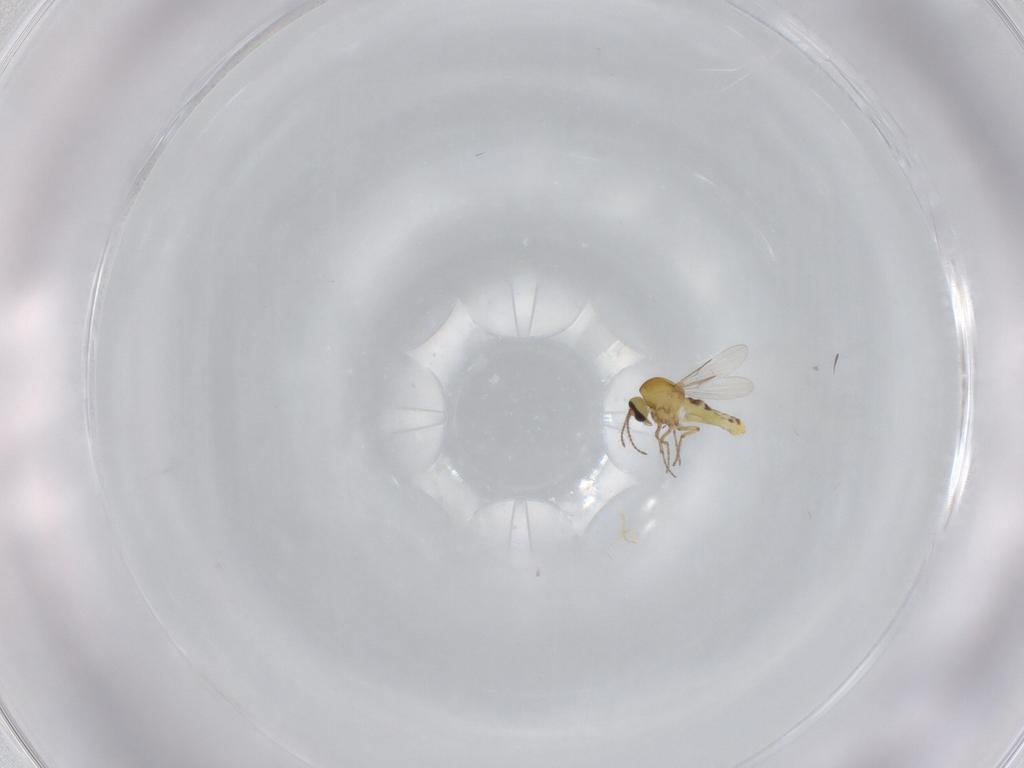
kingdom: Animalia
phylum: Arthropoda
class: Insecta
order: Diptera
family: Ceratopogonidae
